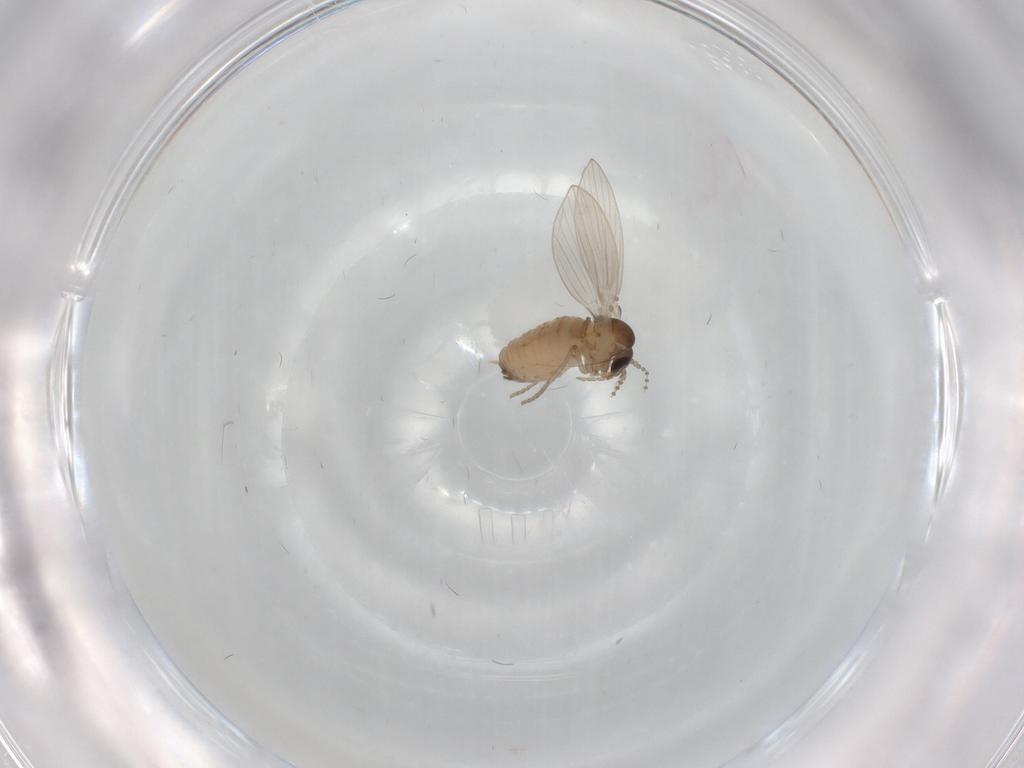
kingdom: Animalia
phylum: Arthropoda
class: Insecta
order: Diptera
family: Psychodidae
